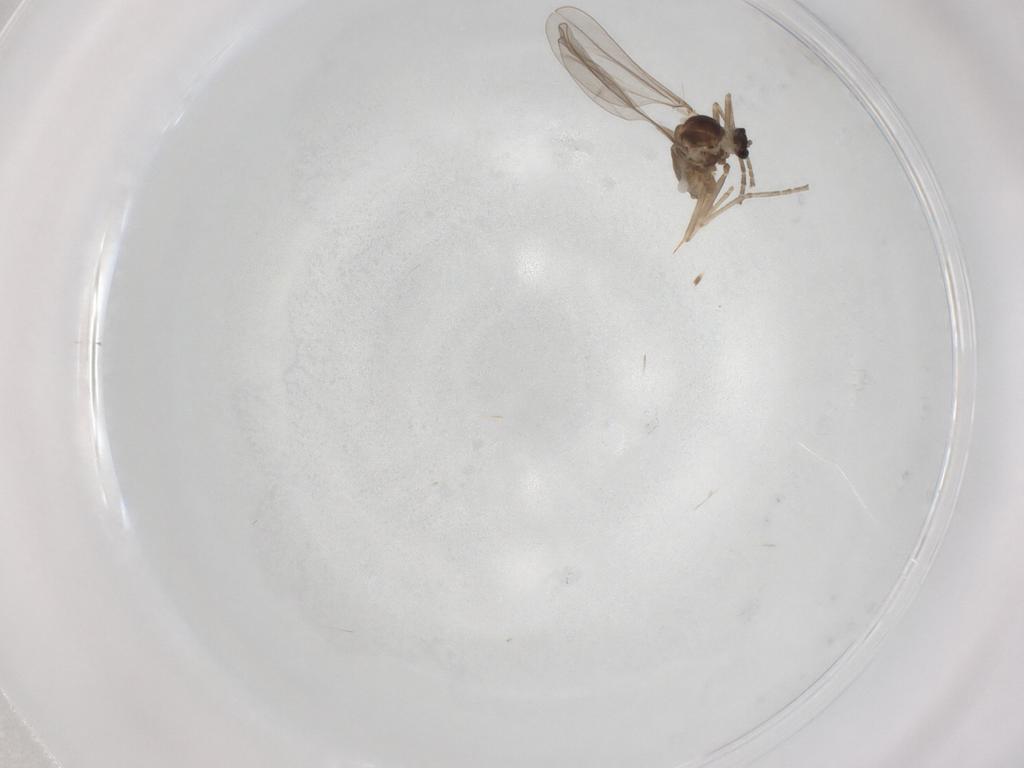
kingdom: Animalia
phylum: Arthropoda
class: Insecta
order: Diptera
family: Cecidomyiidae
